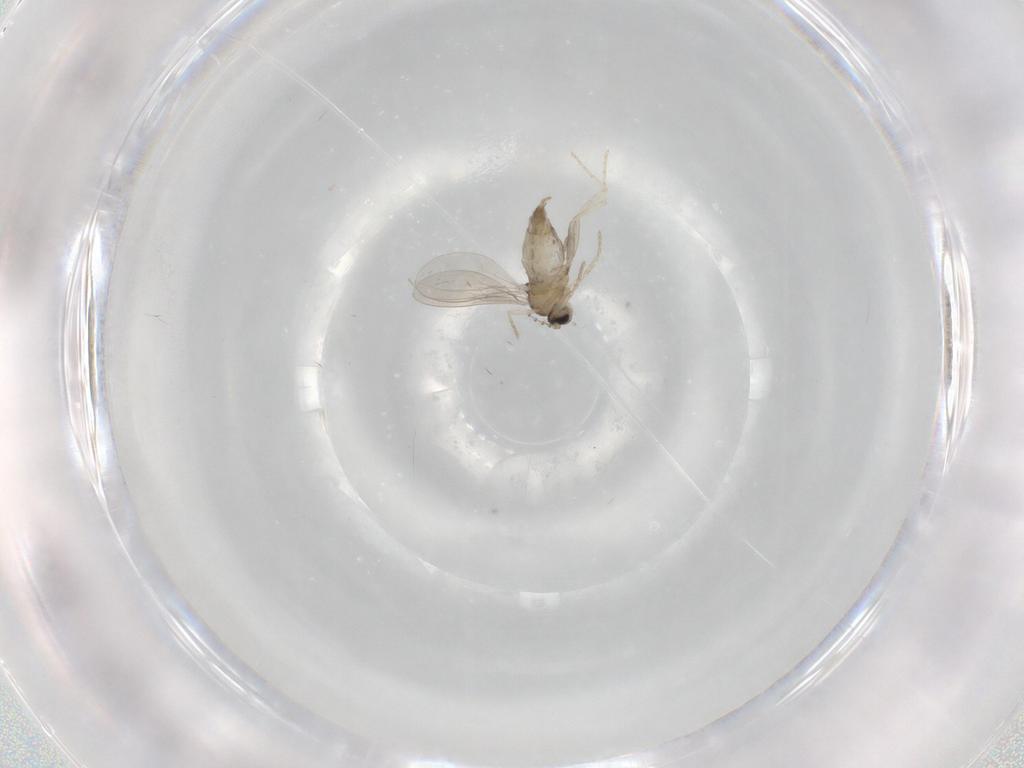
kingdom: Animalia
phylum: Arthropoda
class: Insecta
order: Diptera
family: Cecidomyiidae
